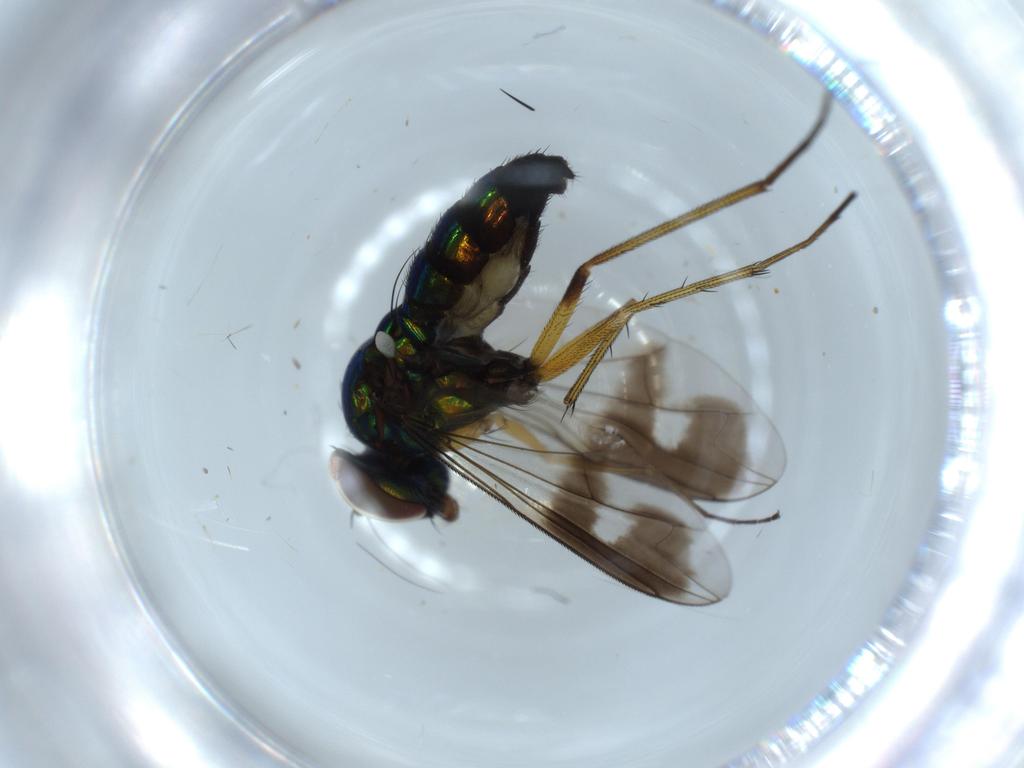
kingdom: Animalia
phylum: Arthropoda
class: Insecta
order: Diptera
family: Dolichopodidae
